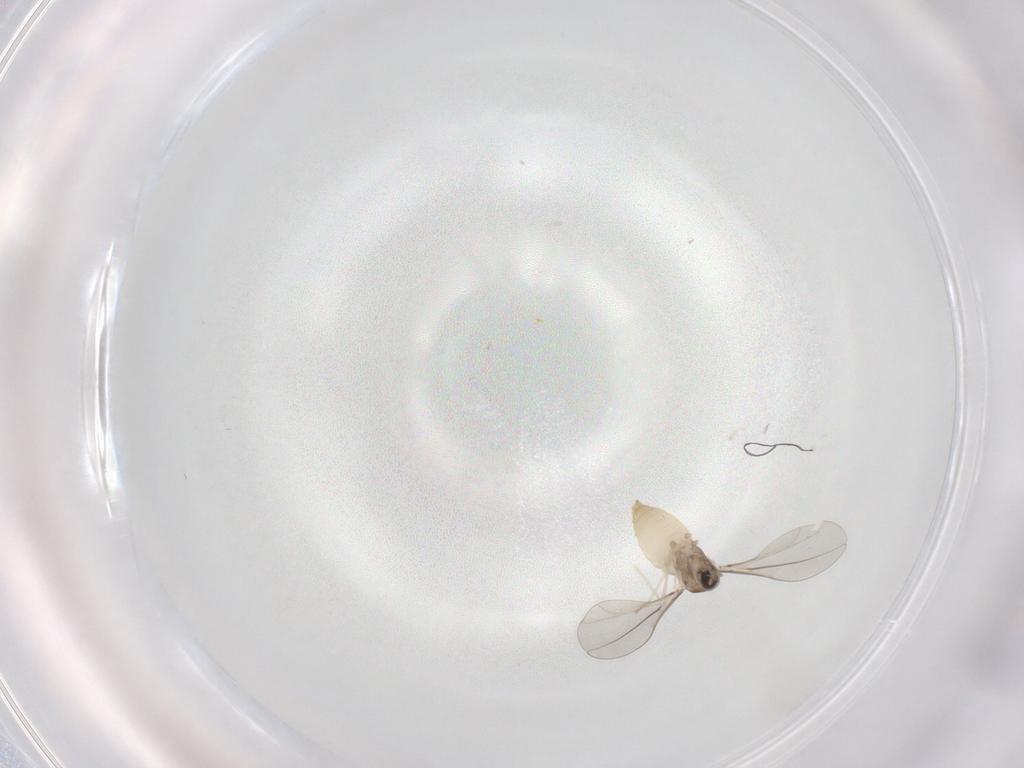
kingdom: Animalia
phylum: Arthropoda
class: Insecta
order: Diptera
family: Cecidomyiidae
